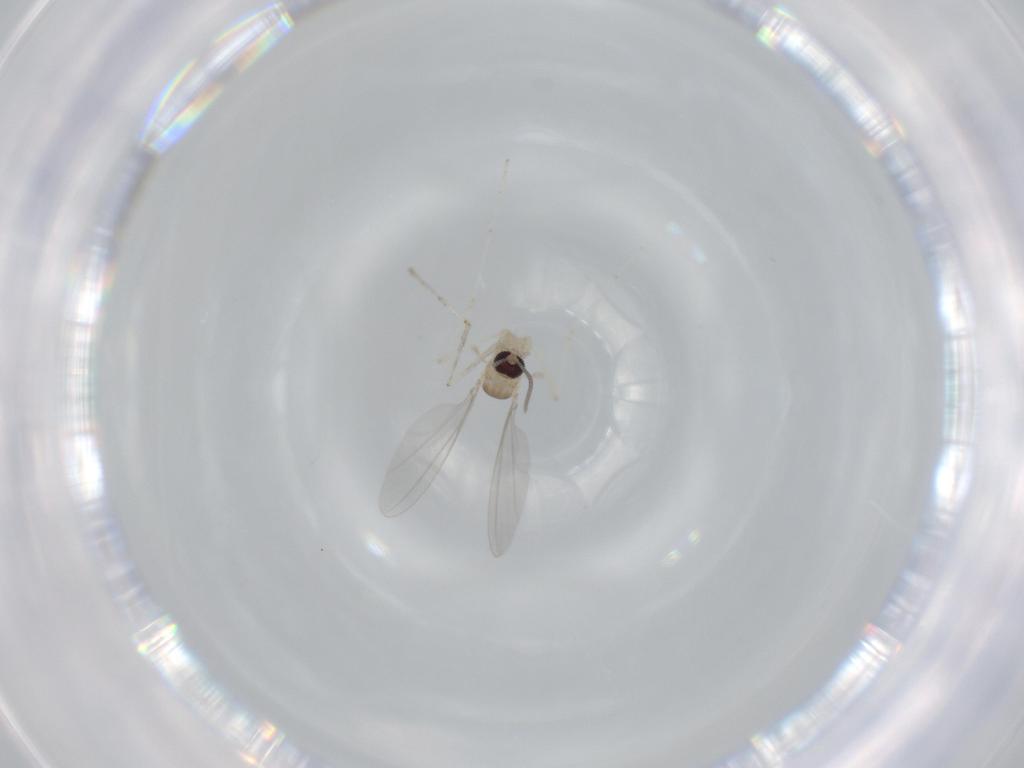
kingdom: Animalia
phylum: Arthropoda
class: Insecta
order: Diptera
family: Cecidomyiidae
